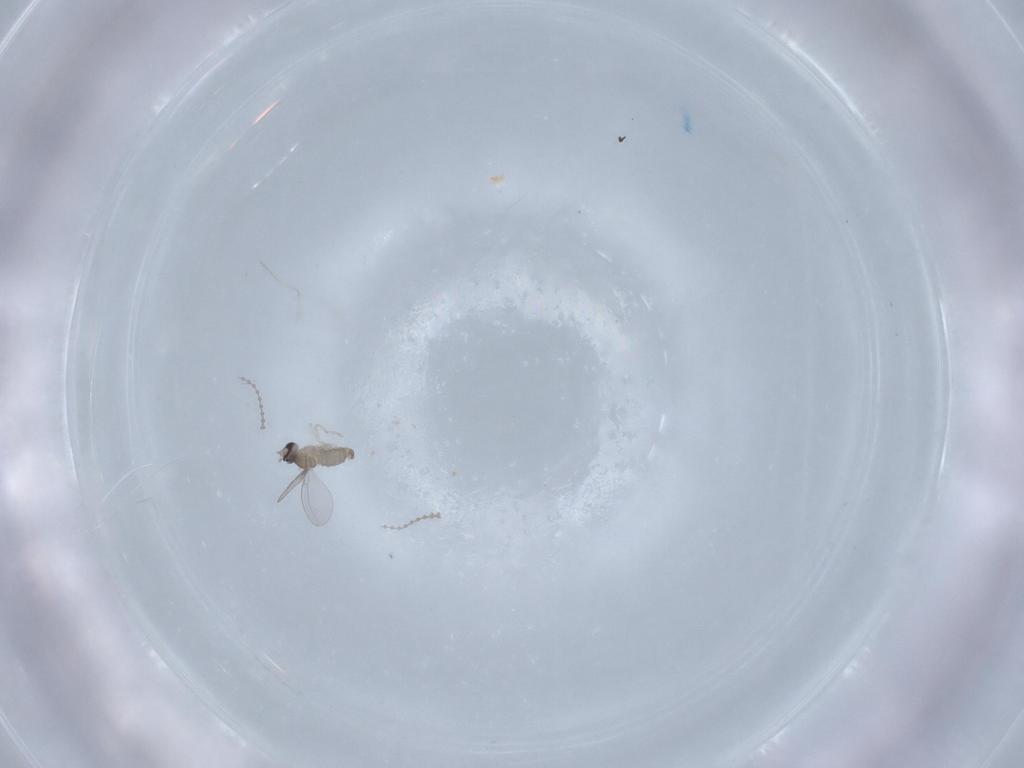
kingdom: Animalia
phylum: Arthropoda
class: Insecta
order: Diptera
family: Cecidomyiidae
